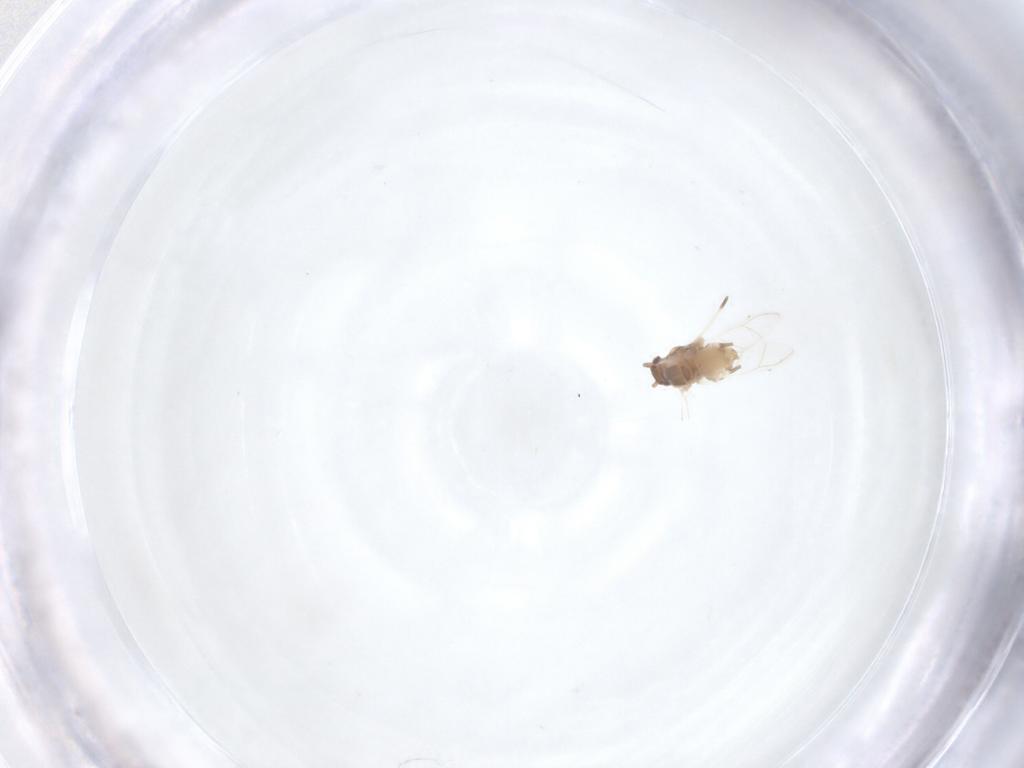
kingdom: Animalia
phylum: Arthropoda
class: Insecta
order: Hemiptera
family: Aphididae
